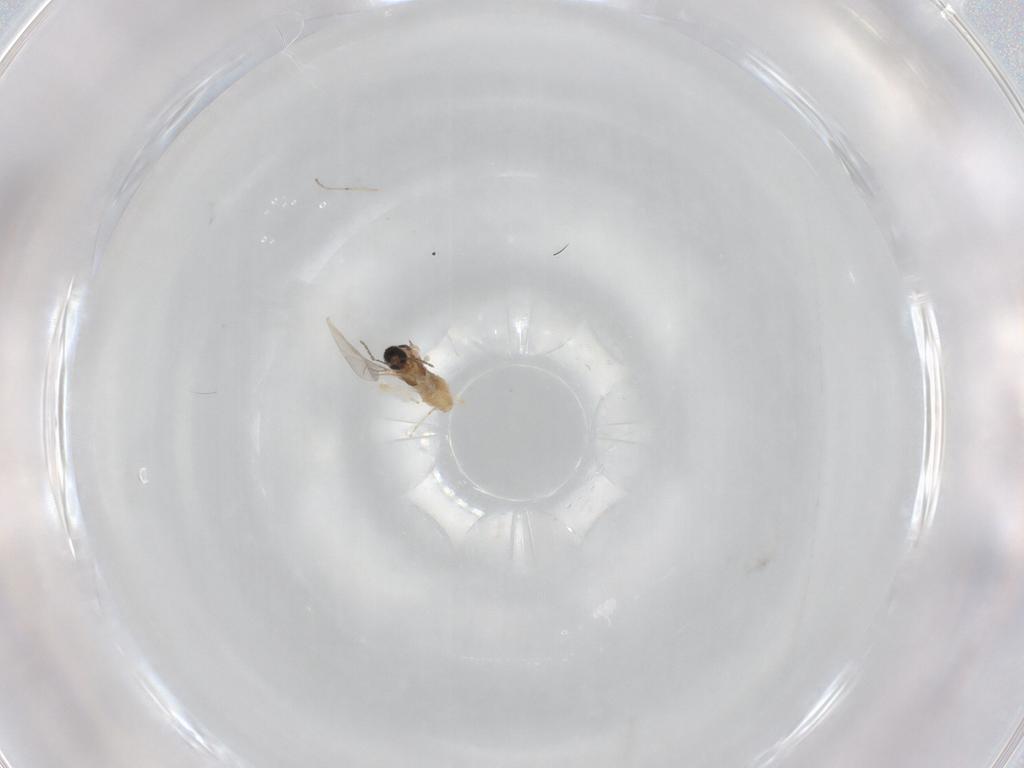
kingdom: Animalia
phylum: Arthropoda
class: Insecta
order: Diptera
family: Cecidomyiidae
